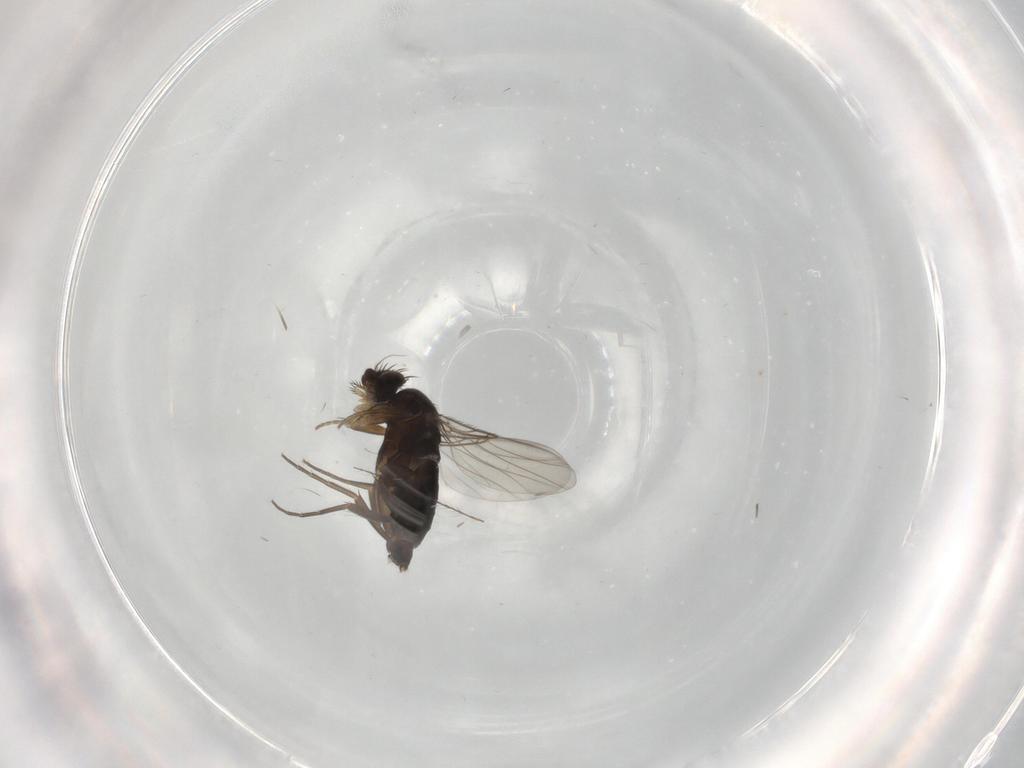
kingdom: Animalia
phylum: Arthropoda
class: Insecta
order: Diptera
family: Phoridae
